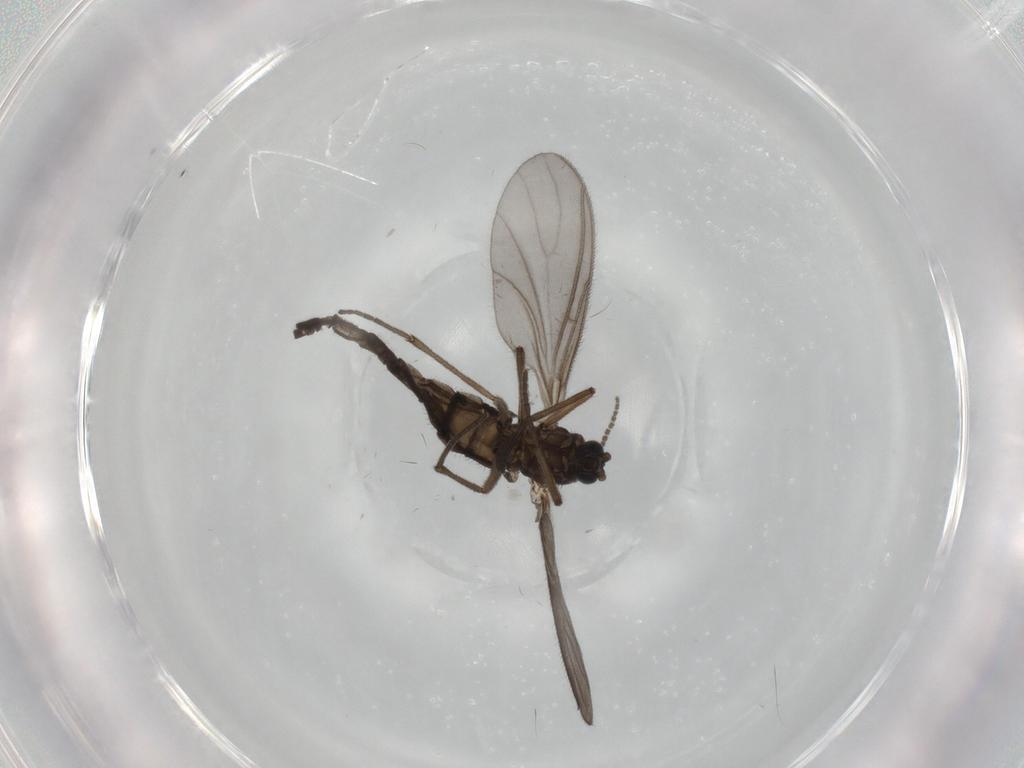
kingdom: Animalia
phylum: Arthropoda
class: Insecta
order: Diptera
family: Sciaridae
